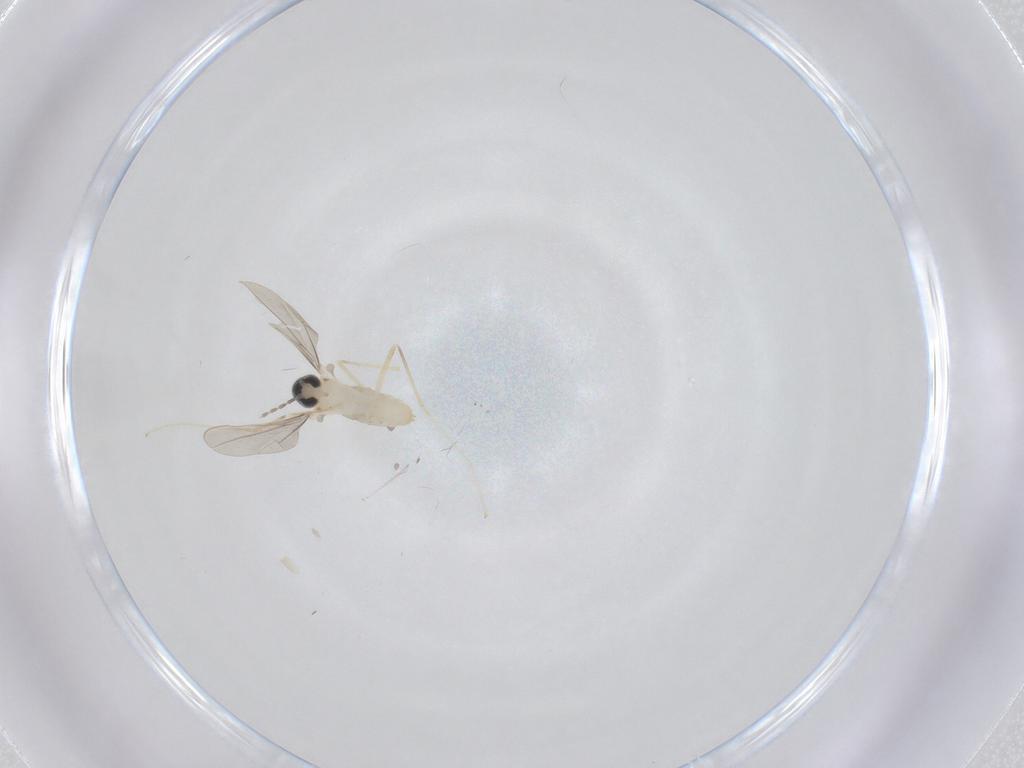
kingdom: Animalia
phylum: Arthropoda
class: Insecta
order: Diptera
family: Cecidomyiidae
